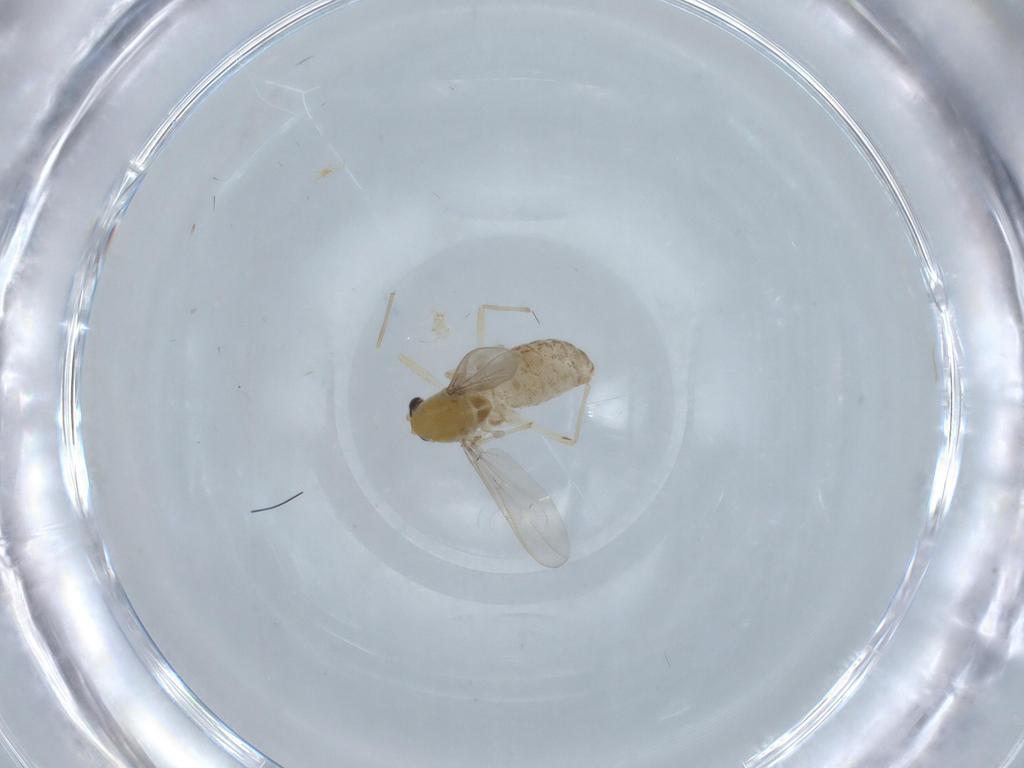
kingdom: Animalia
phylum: Arthropoda
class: Insecta
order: Diptera
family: Chironomidae
